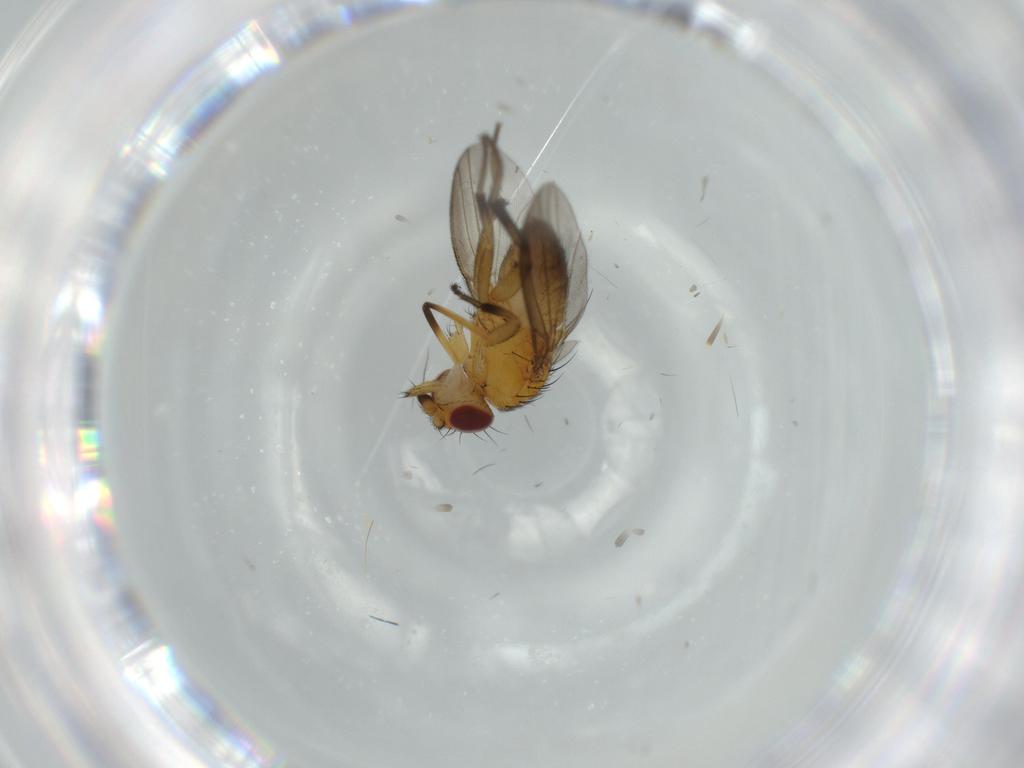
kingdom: Animalia
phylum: Arthropoda
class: Insecta
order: Diptera
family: Milichiidae
